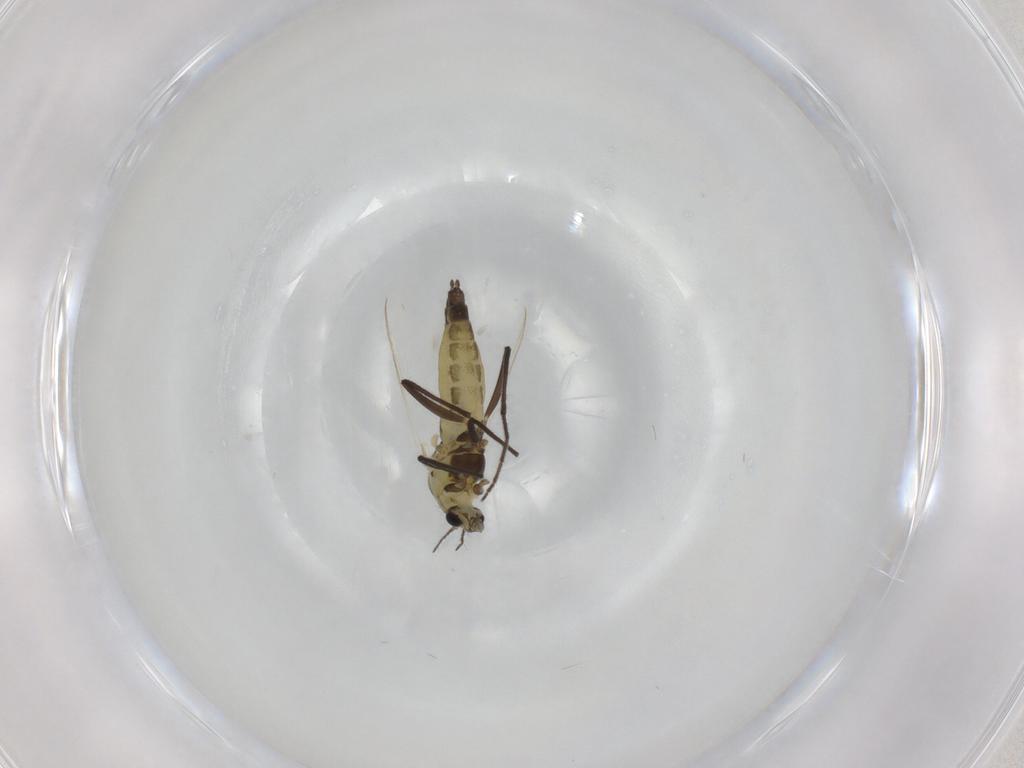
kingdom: Animalia
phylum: Arthropoda
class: Insecta
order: Diptera
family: Chironomidae
